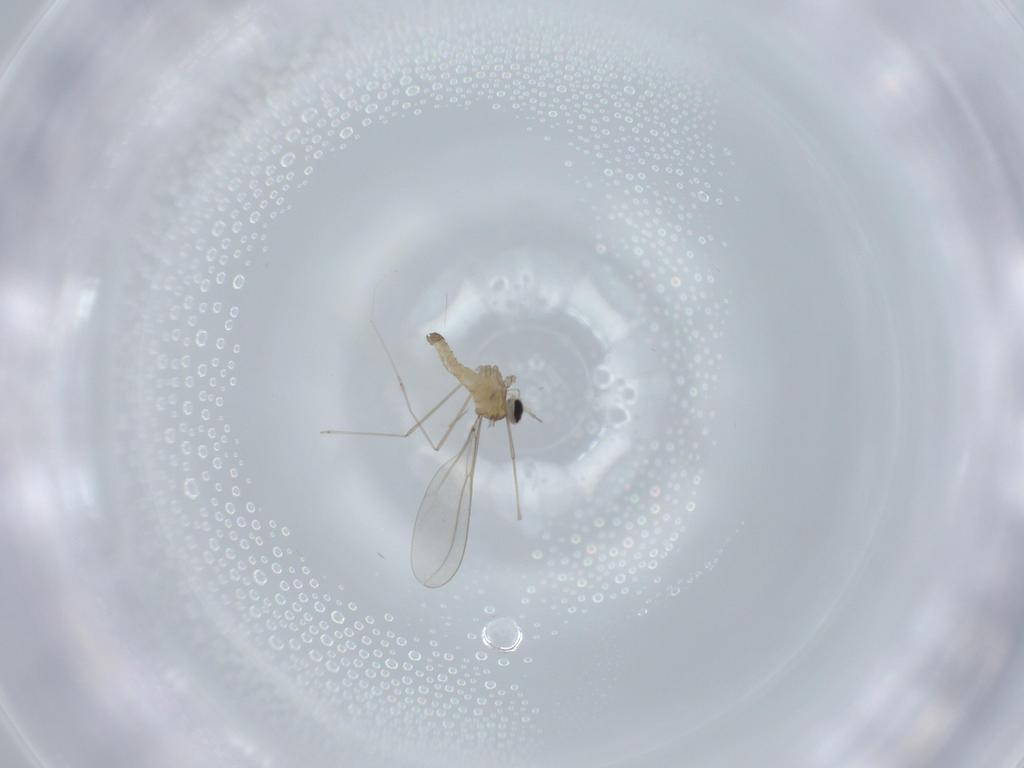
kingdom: Animalia
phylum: Arthropoda
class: Insecta
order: Diptera
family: Cecidomyiidae
